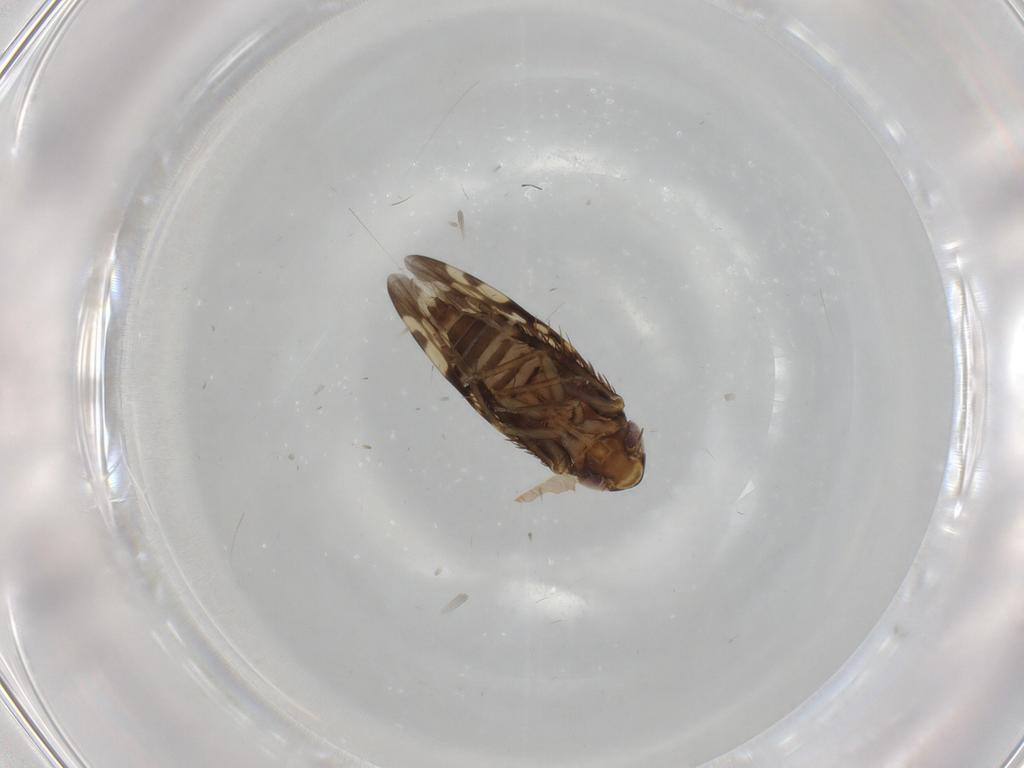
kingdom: Animalia
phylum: Arthropoda
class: Insecta
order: Hemiptera
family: Cicadellidae
